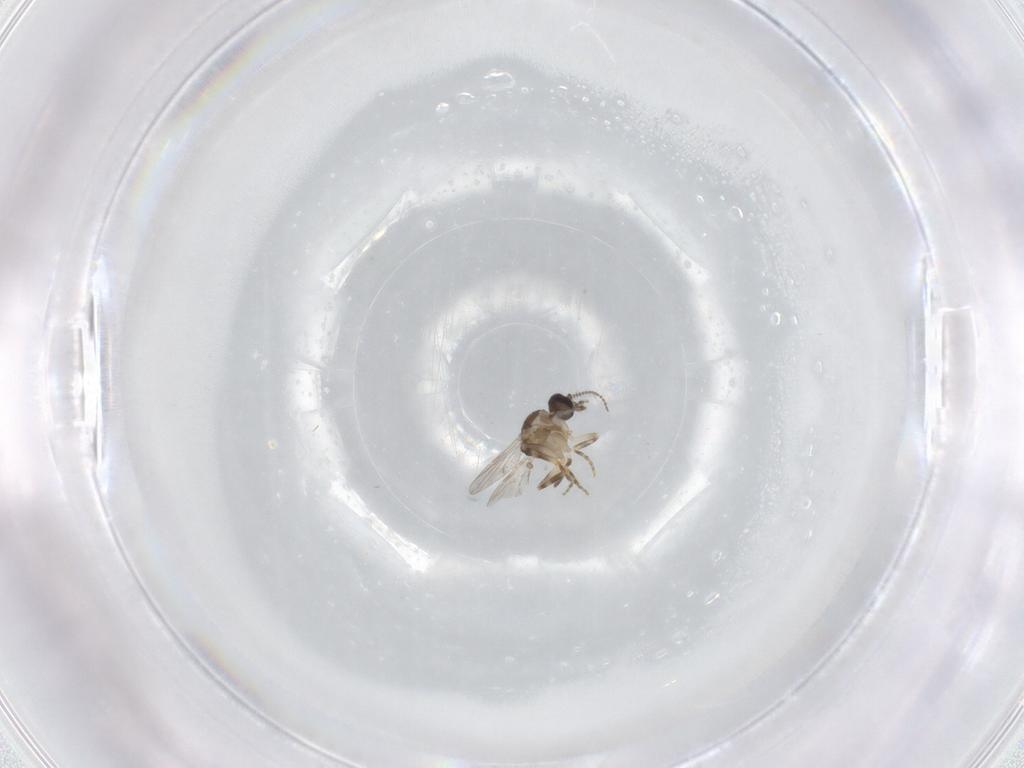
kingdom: Animalia
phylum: Arthropoda
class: Insecta
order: Diptera
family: Ceratopogonidae
